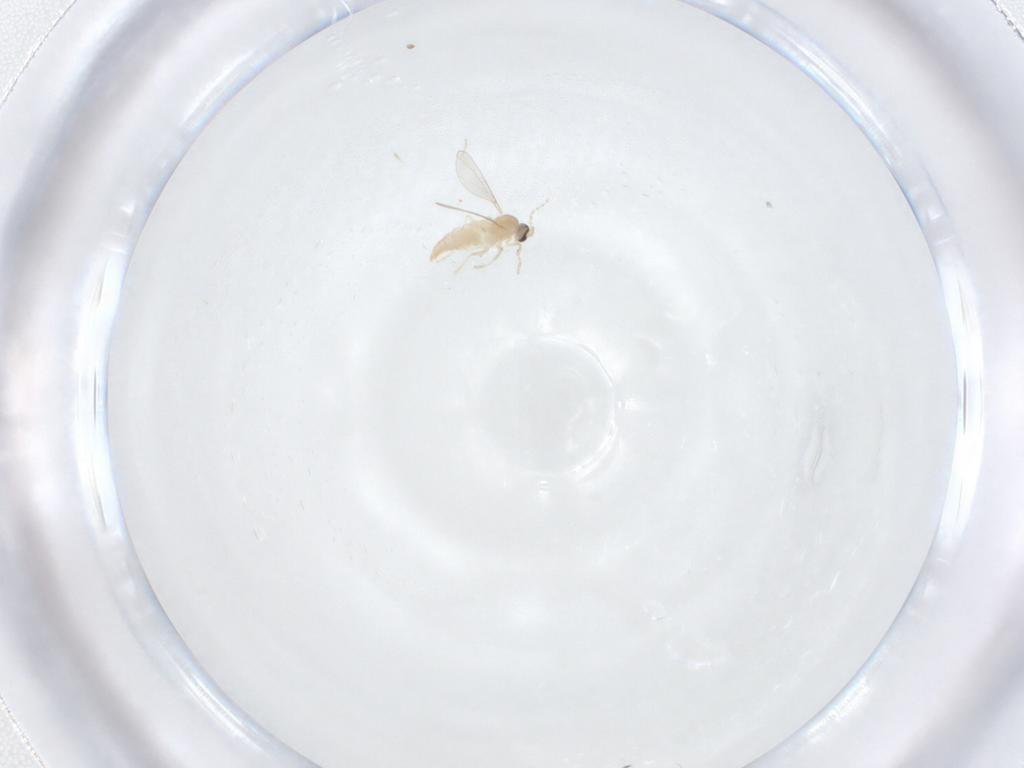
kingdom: Animalia
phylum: Arthropoda
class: Insecta
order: Diptera
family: Cecidomyiidae
